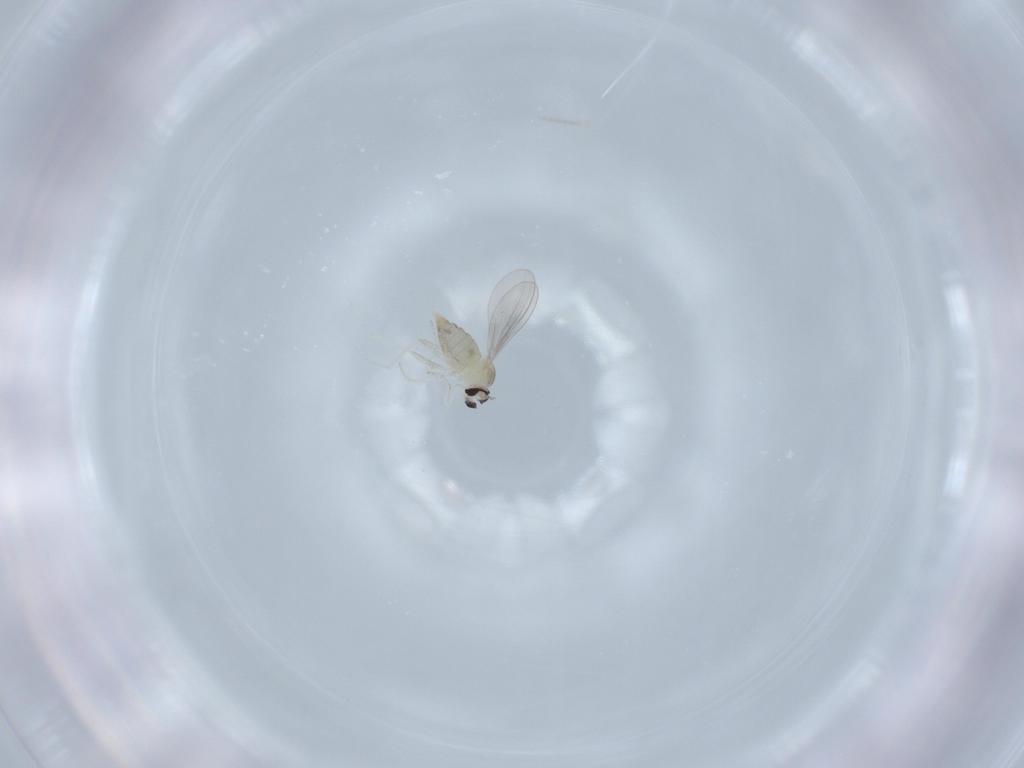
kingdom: Animalia
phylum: Arthropoda
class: Insecta
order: Diptera
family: Cecidomyiidae
